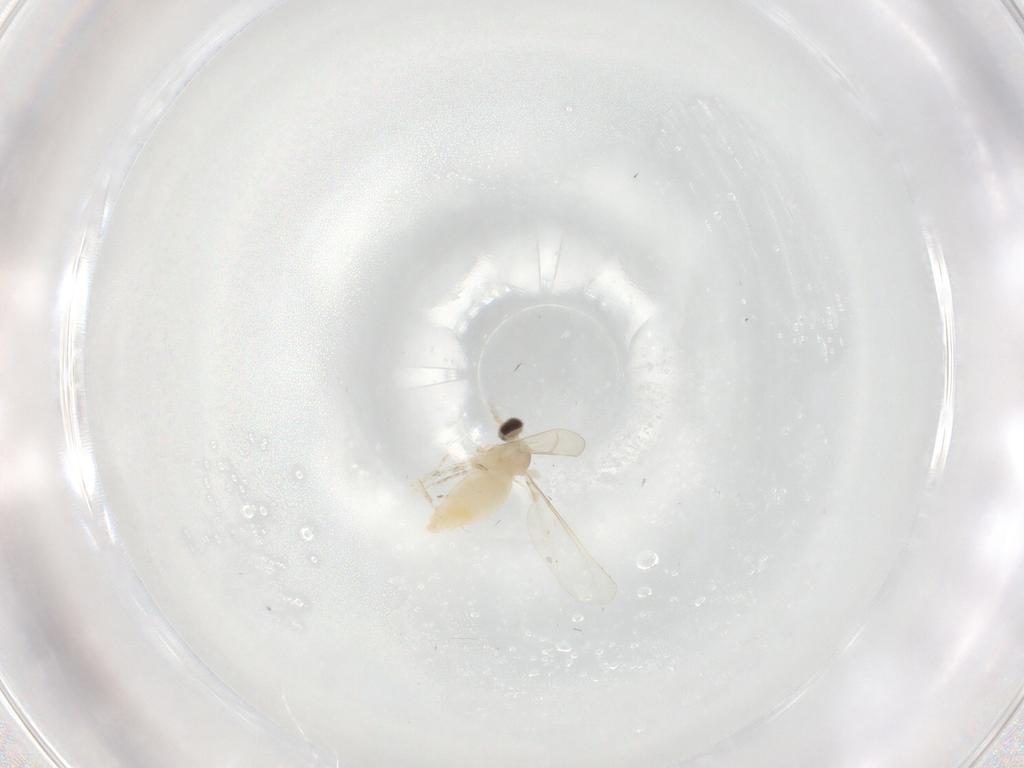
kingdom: Animalia
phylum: Arthropoda
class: Insecta
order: Diptera
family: Cecidomyiidae
